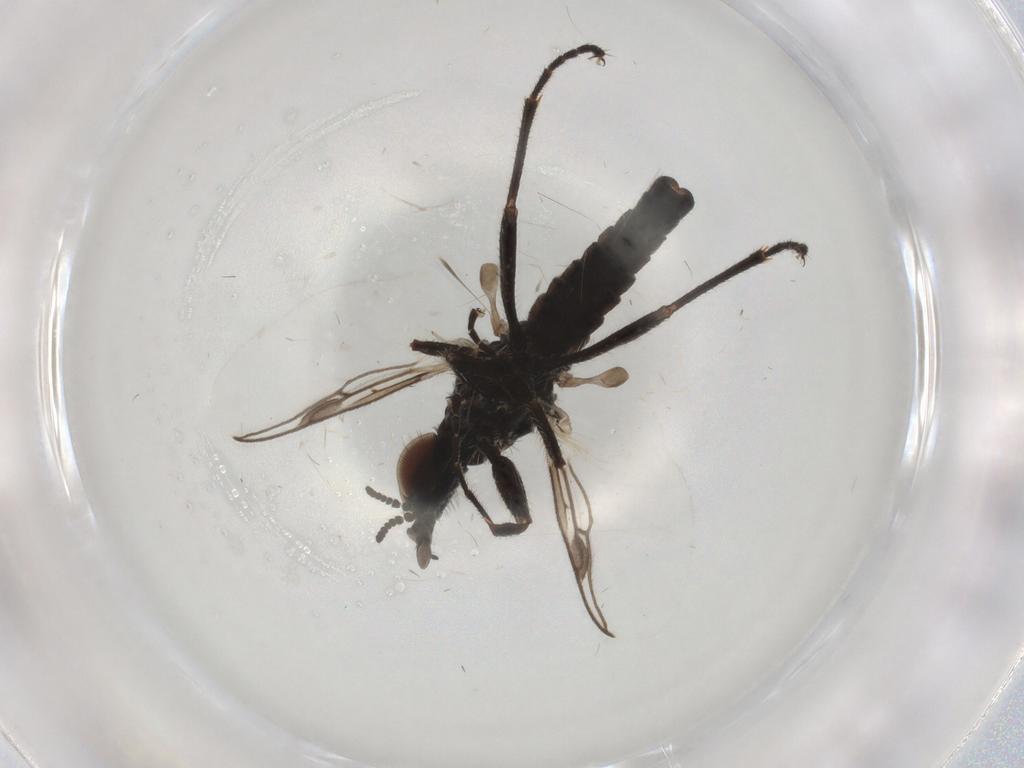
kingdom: Animalia
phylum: Arthropoda
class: Insecta
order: Diptera
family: Bibionidae
